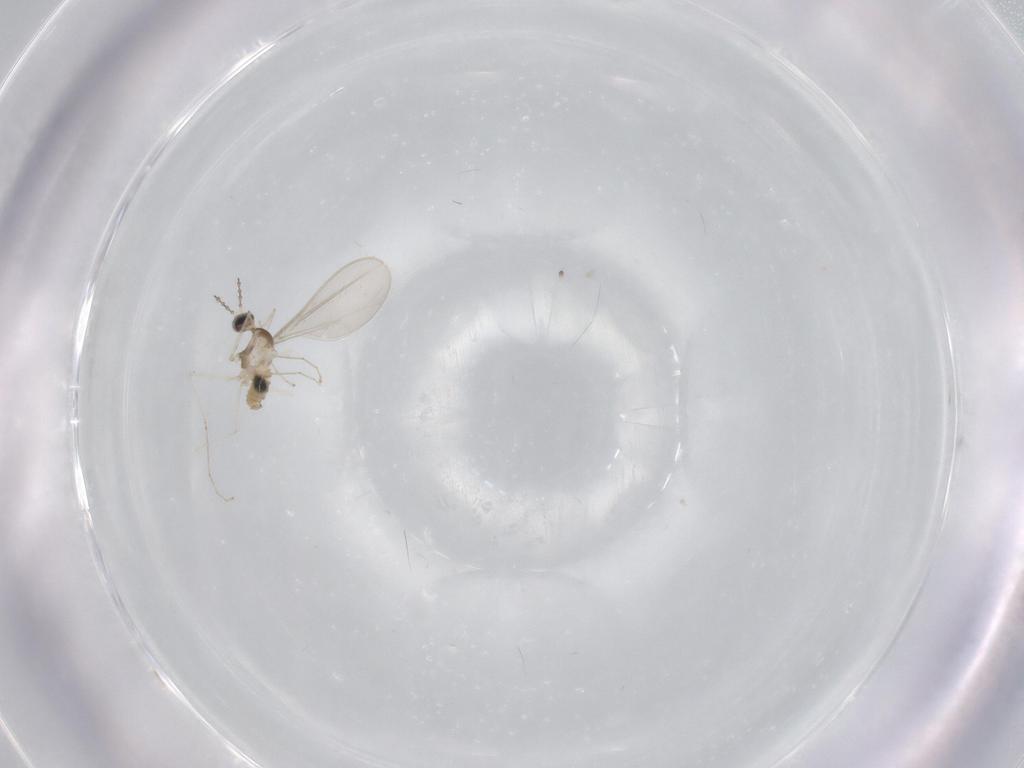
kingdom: Animalia
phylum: Arthropoda
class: Insecta
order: Diptera
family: Cecidomyiidae
